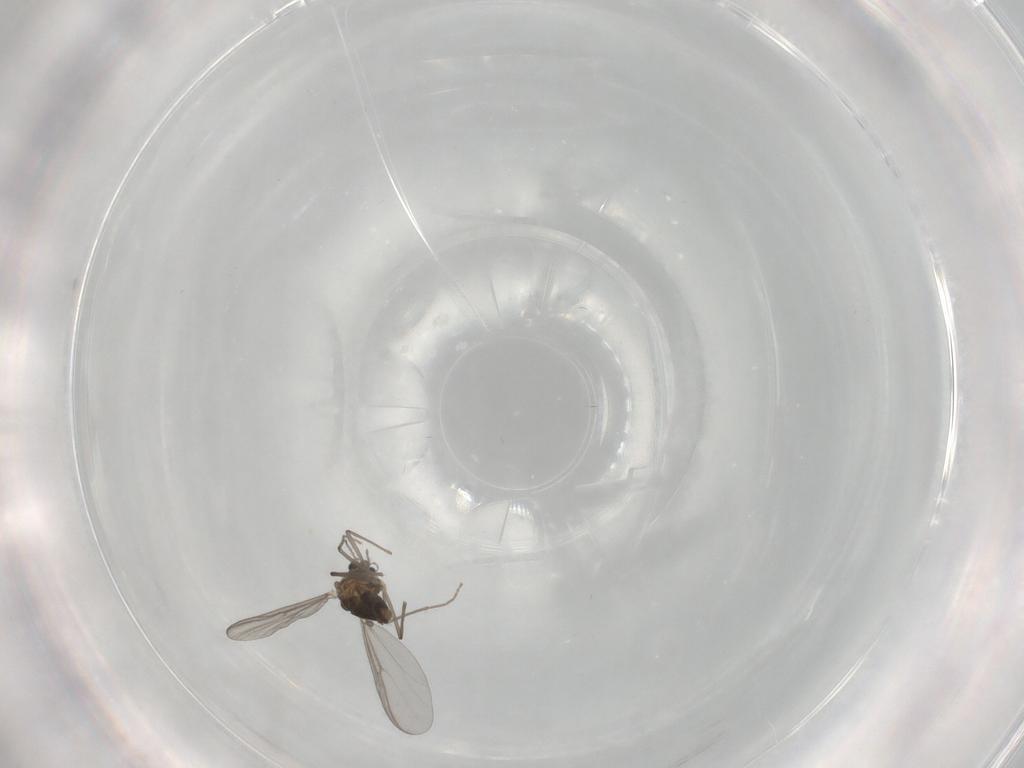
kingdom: Animalia
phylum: Arthropoda
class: Insecta
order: Diptera
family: Chironomidae
